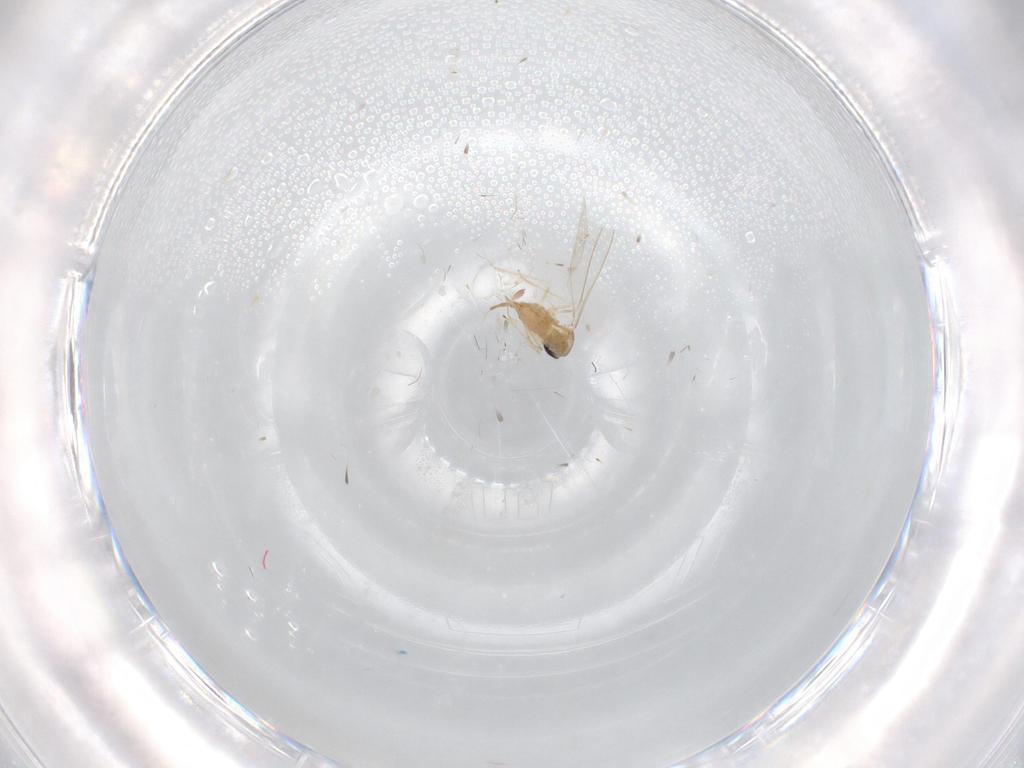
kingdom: Animalia
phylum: Arthropoda
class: Insecta
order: Diptera
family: Cecidomyiidae
